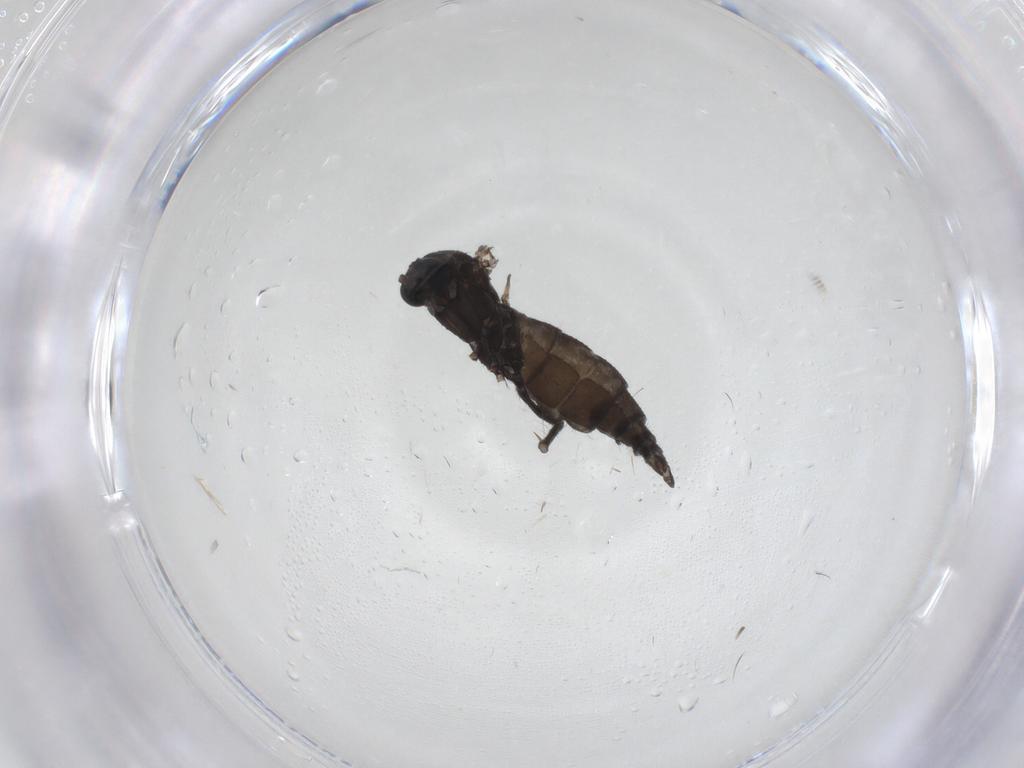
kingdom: Animalia
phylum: Arthropoda
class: Insecta
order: Diptera
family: Sciaridae
